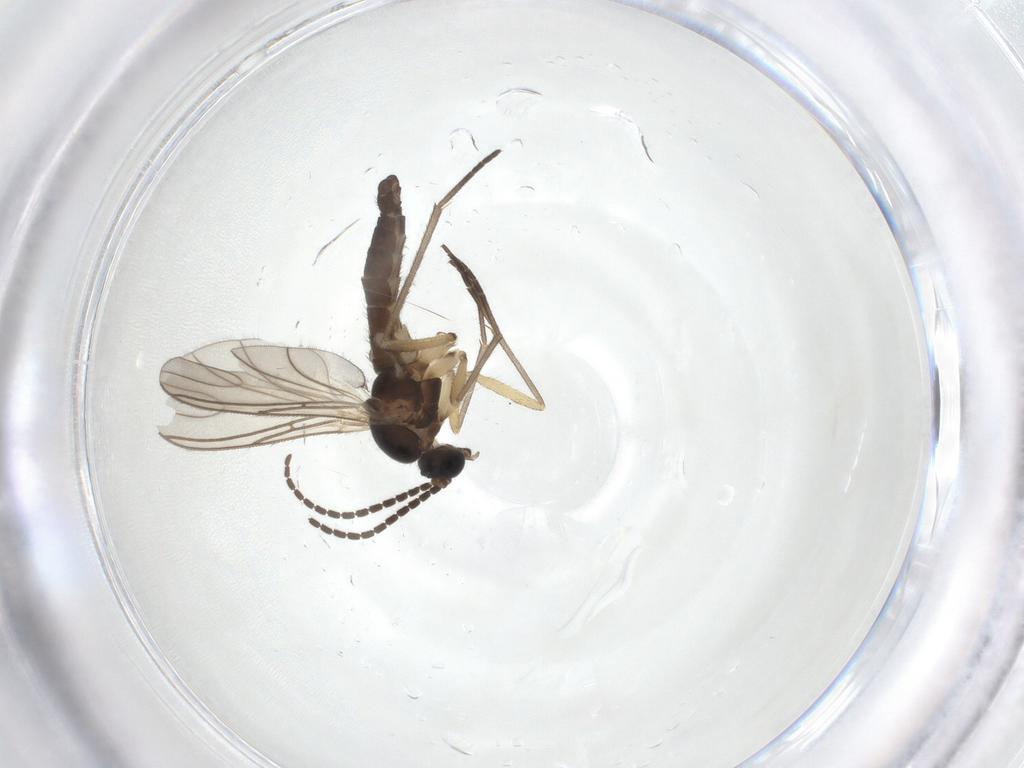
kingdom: Animalia
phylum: Arthropoda
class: Insecta
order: Diptera
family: Sciaridae
